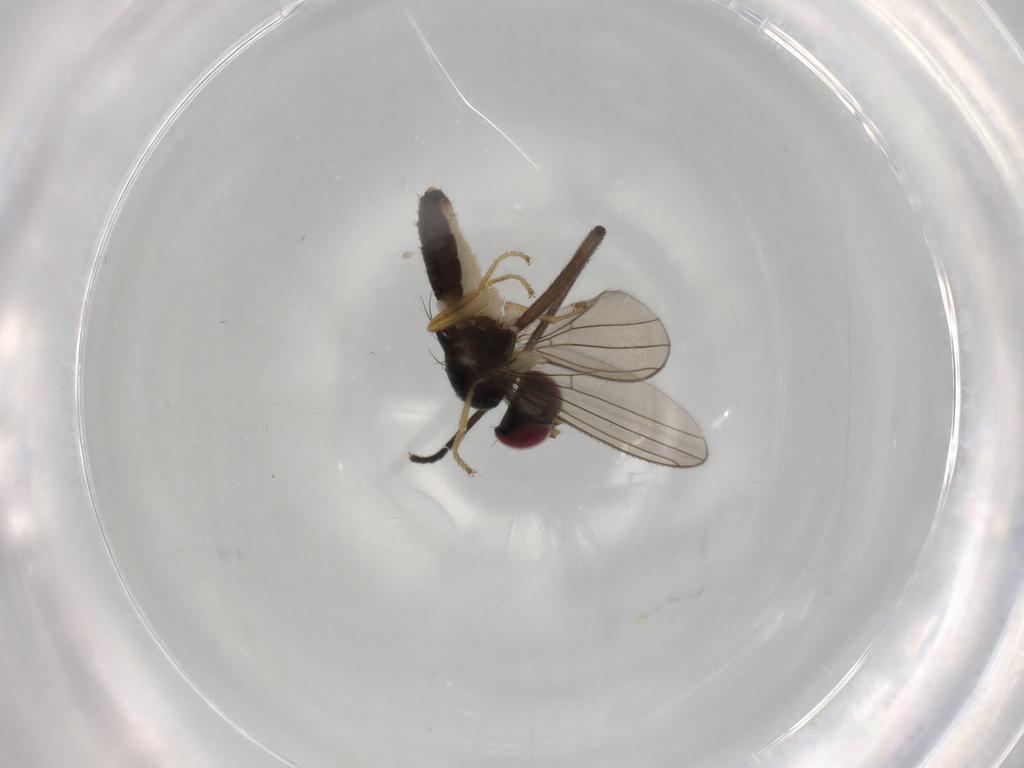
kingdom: Animalia
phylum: Arthropoda
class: Insecta
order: Diptera
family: Anthomyzidae
